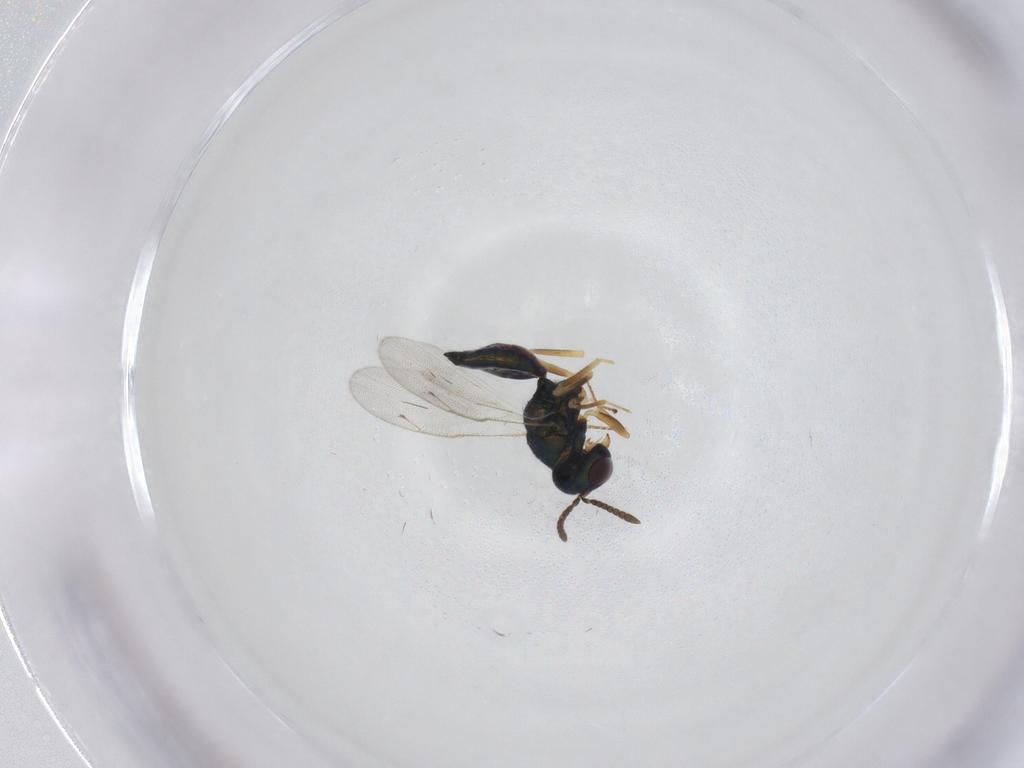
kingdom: Animalia
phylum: Arthropoda
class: Insecta
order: Hymenoptera
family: Pteromalidae
